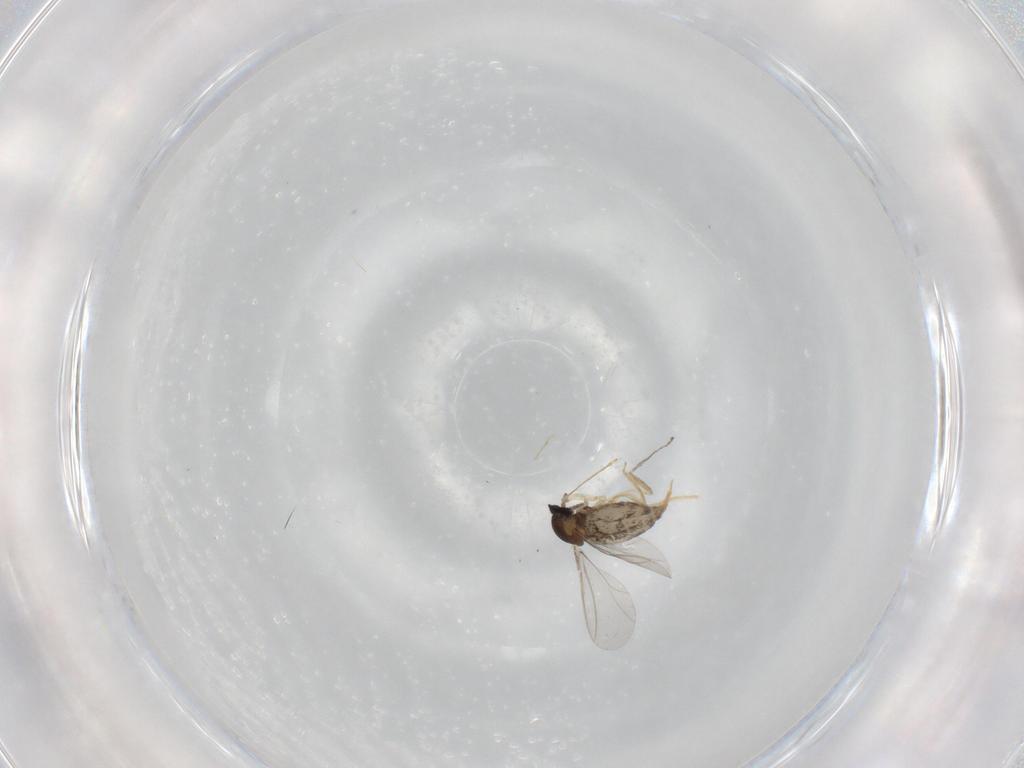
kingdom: Animalia
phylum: Arthropoda
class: Insecta
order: Diptera
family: Cecidomyiidae
